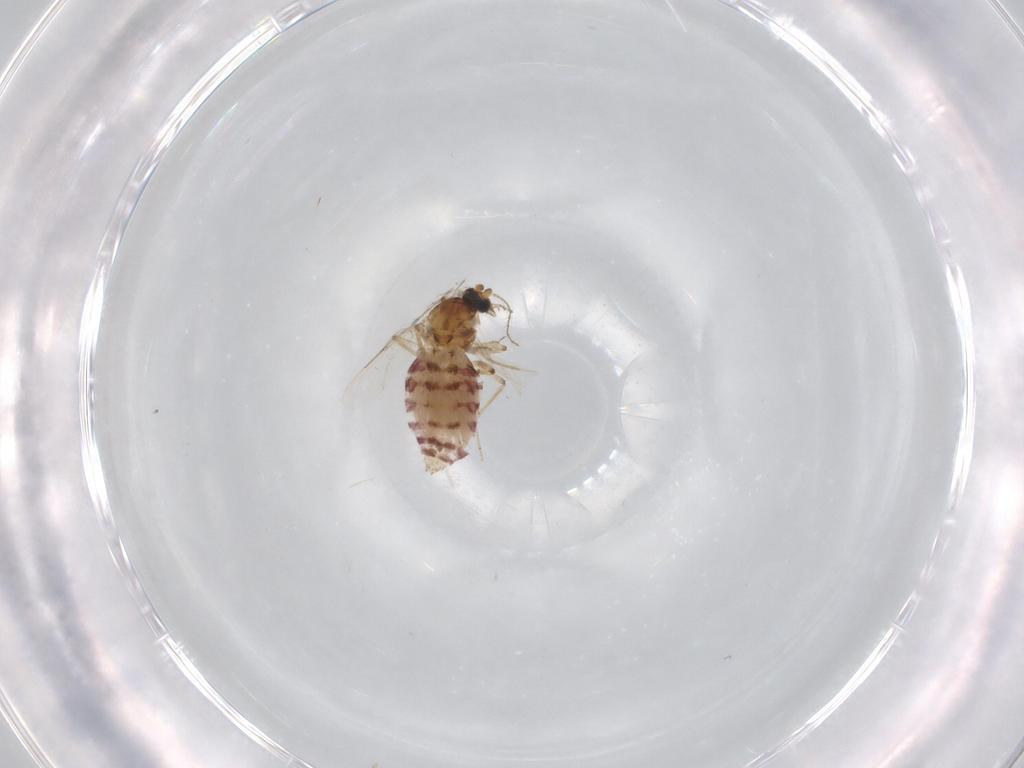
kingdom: Animalia
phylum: Arthropoda
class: Insecta
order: Diptera
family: Ceratopogonidae
